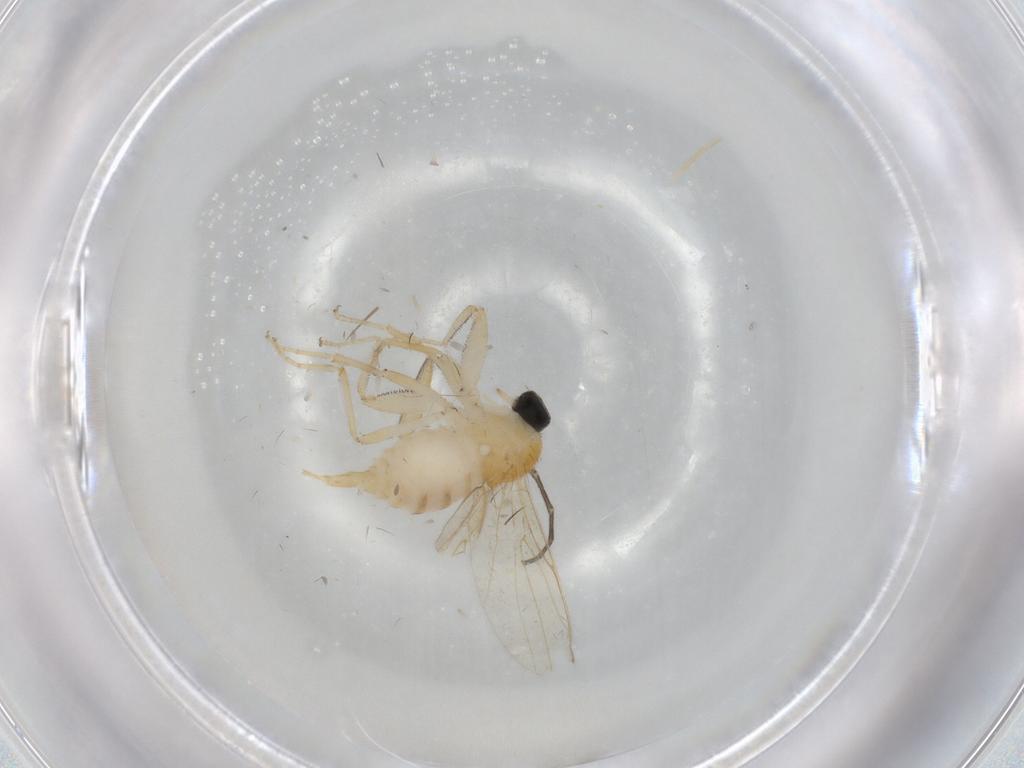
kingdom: Animalia
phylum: Arthropoda
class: Insecta
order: Diptera
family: Hybotidae
